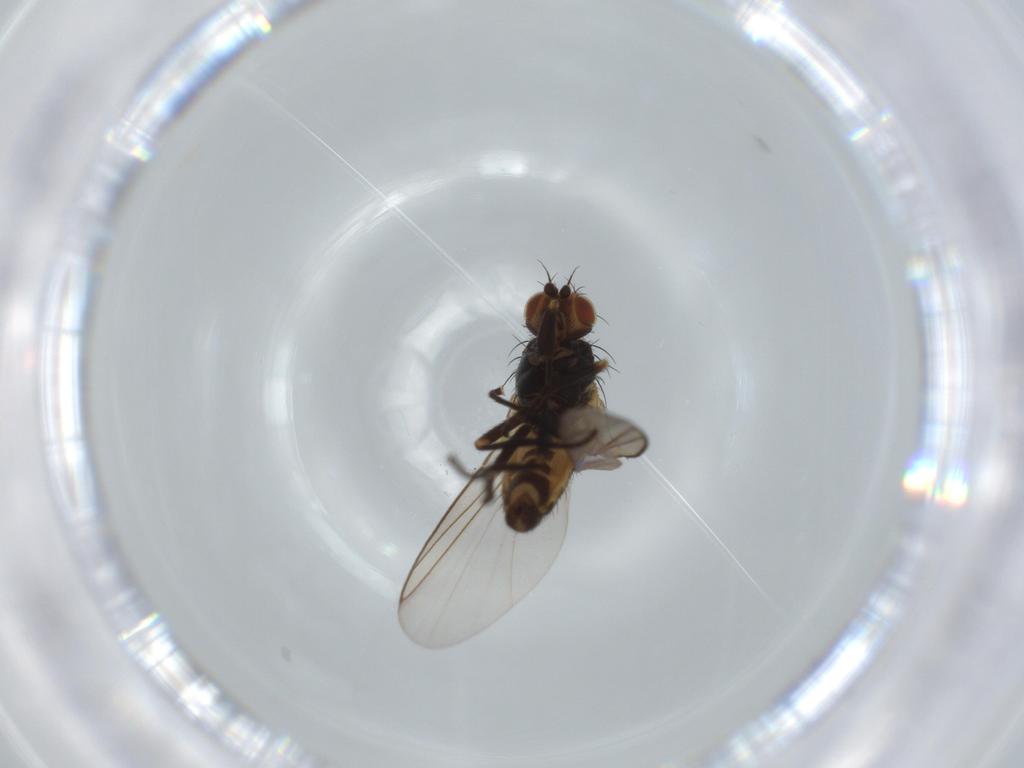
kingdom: Animalia
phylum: Arthropoda
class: Insecta
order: Diptera
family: Agromyzidae
